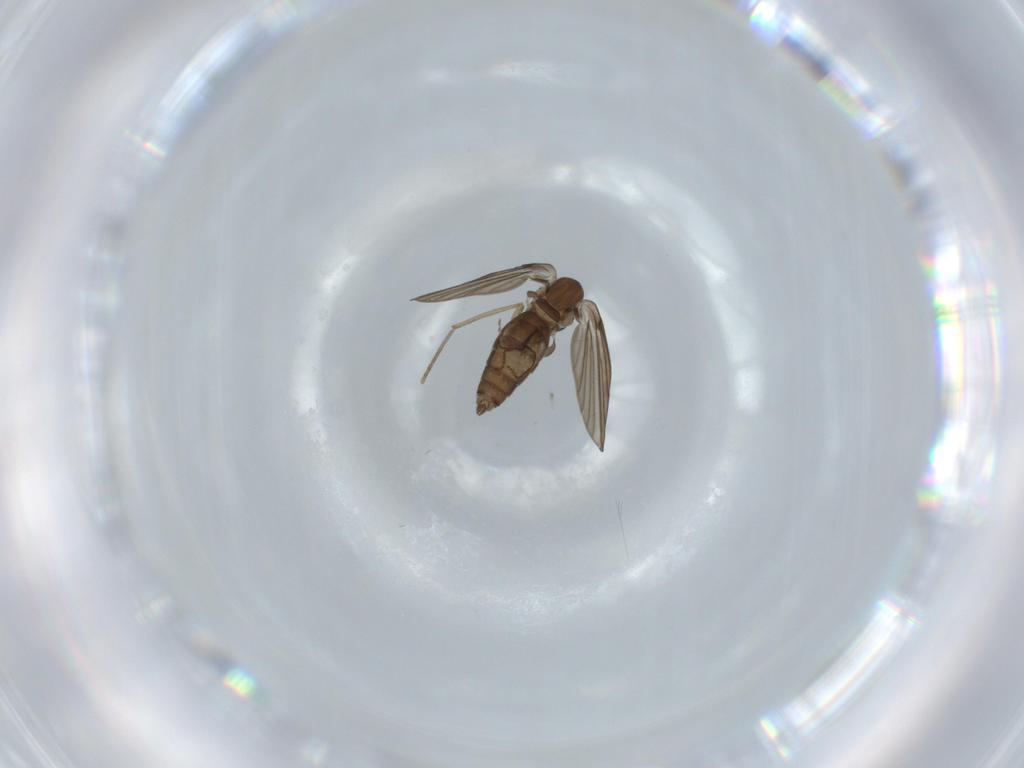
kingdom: Animalia
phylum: Arthropoda
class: Insecta
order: Diptera
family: Psychodidae
